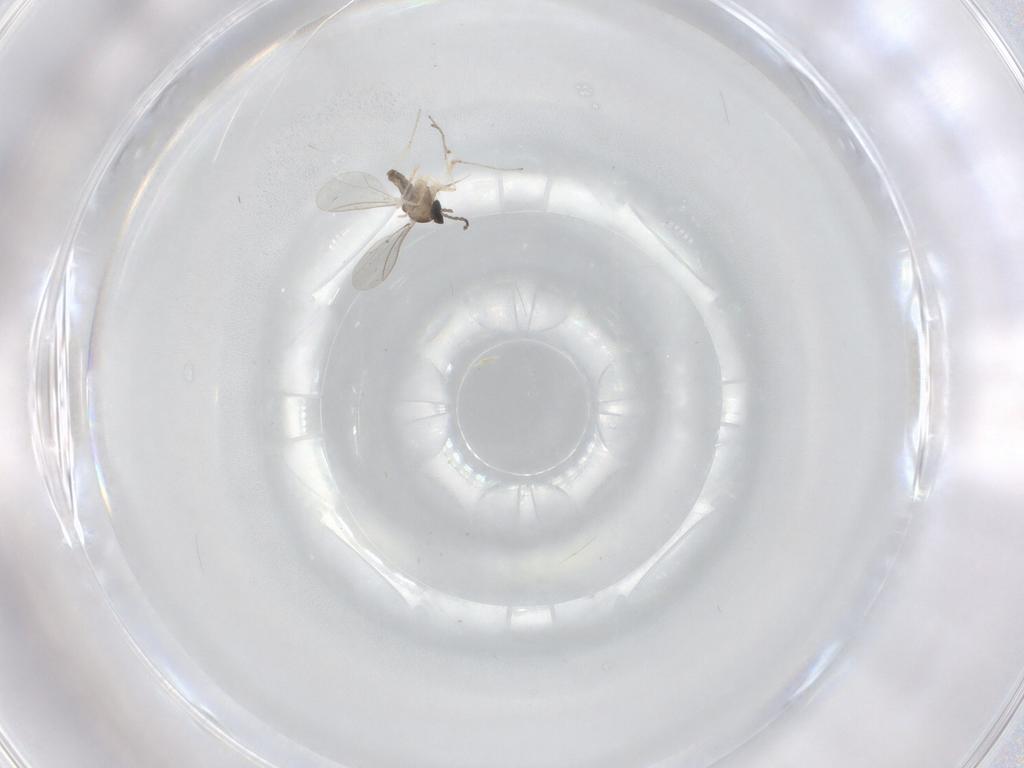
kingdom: Animalia
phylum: Arthropoda
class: Insecta
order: Diptera
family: Cecidomyiidae
